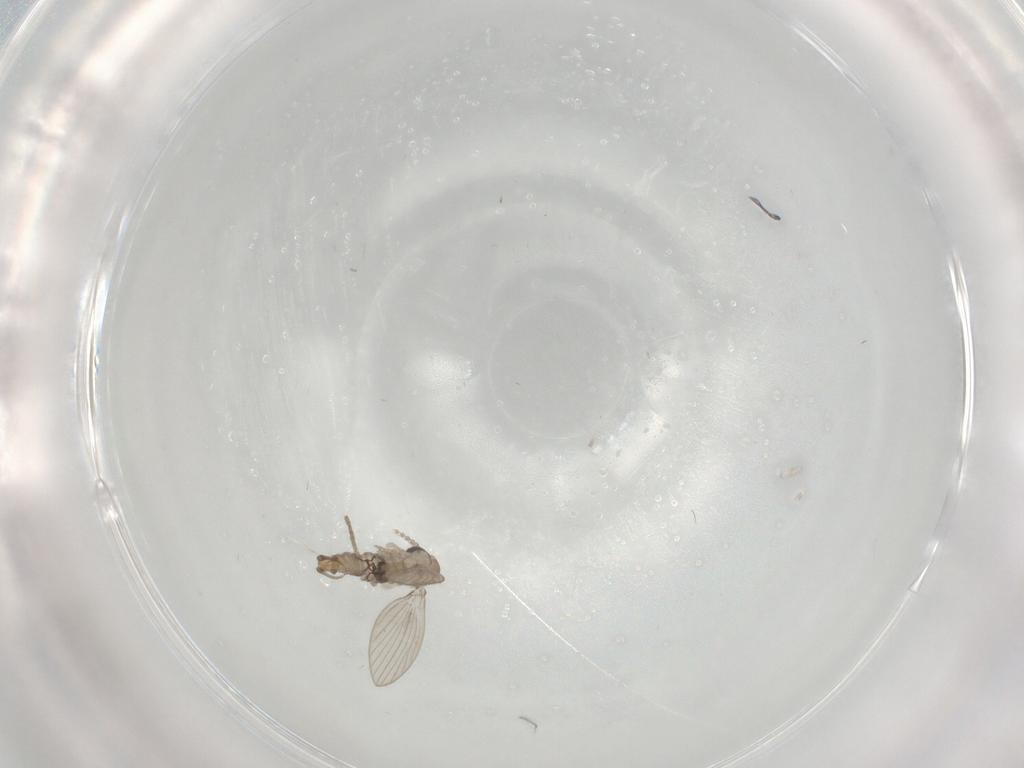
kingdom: Animalia
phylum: Arthropoda
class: Insecta
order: Diptera
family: Psychodidae
